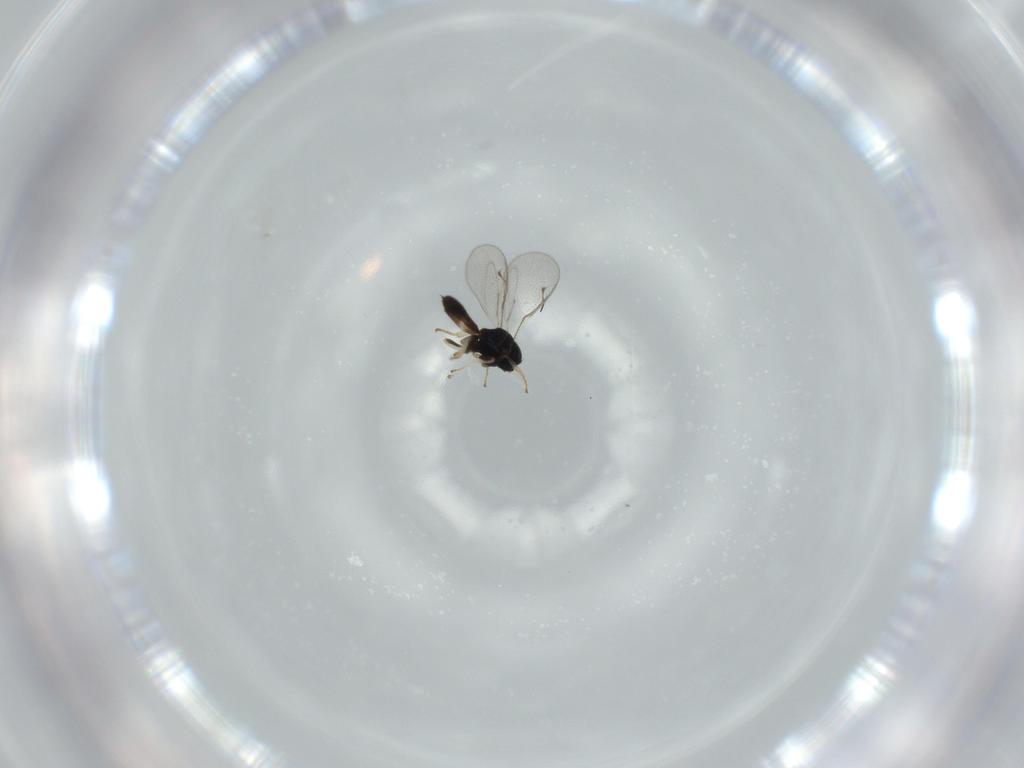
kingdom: Animalia
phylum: Arthropoda
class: Insecta
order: Hymenoptera
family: Pteromalidae
